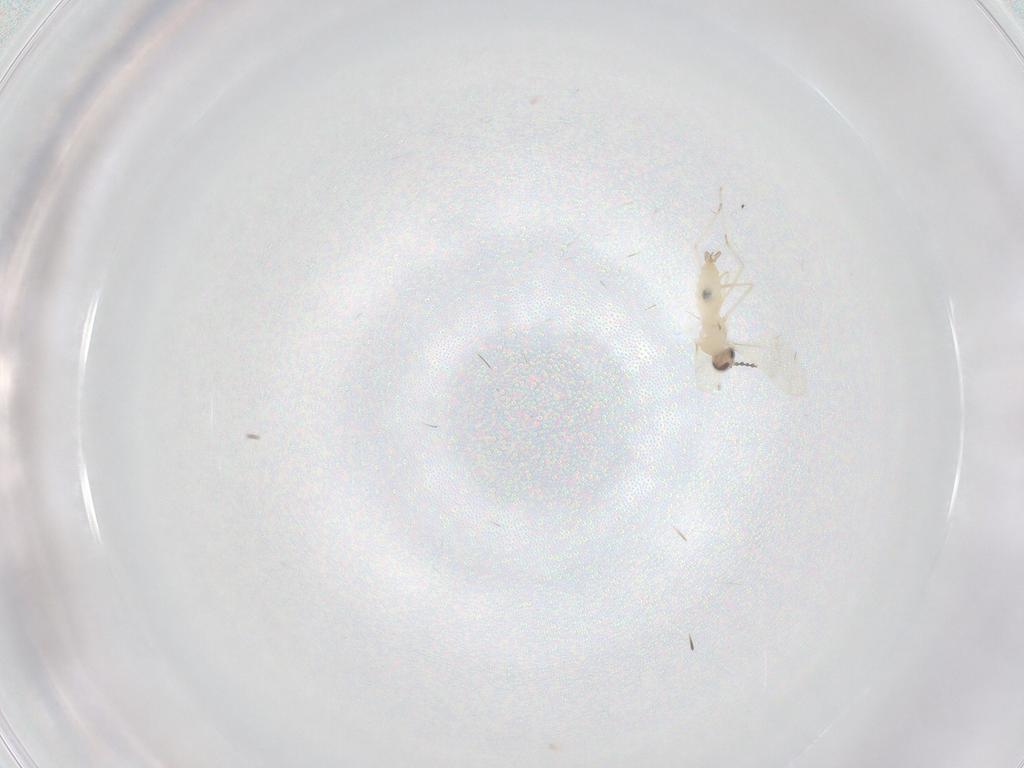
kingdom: Animalia
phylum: Arthropoda
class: Insecta
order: Diptera
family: Cecidomyiidae
